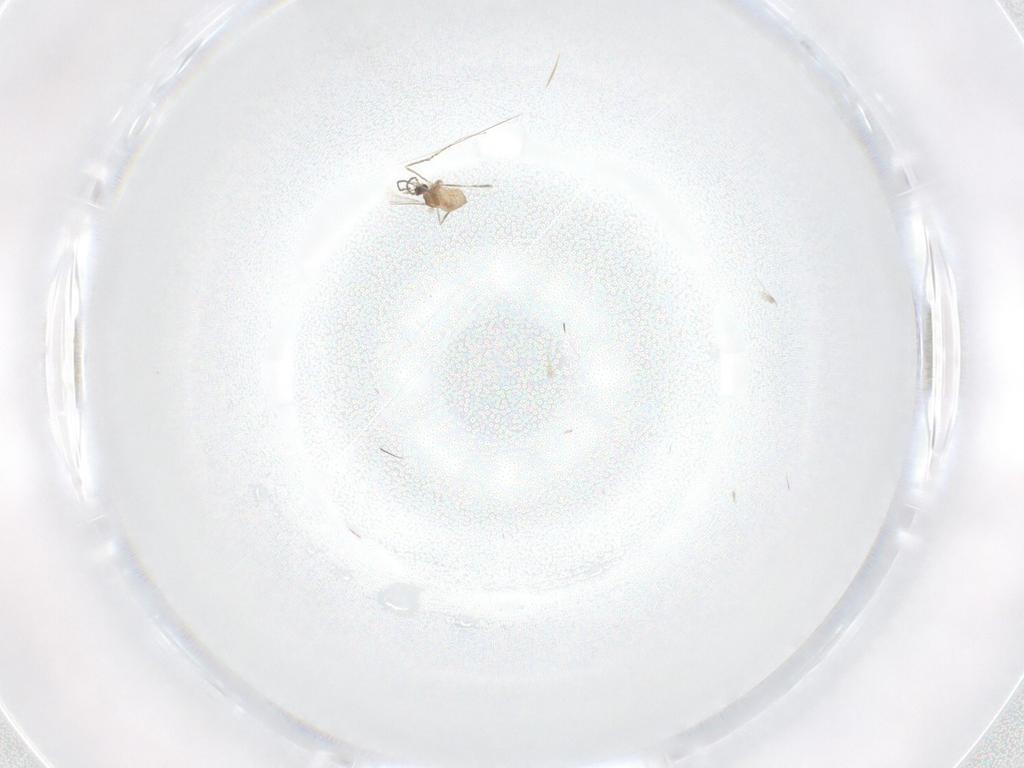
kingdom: Animalia
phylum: Arthropoda
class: Insecta
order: Diptera
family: Cecidomyiidae
